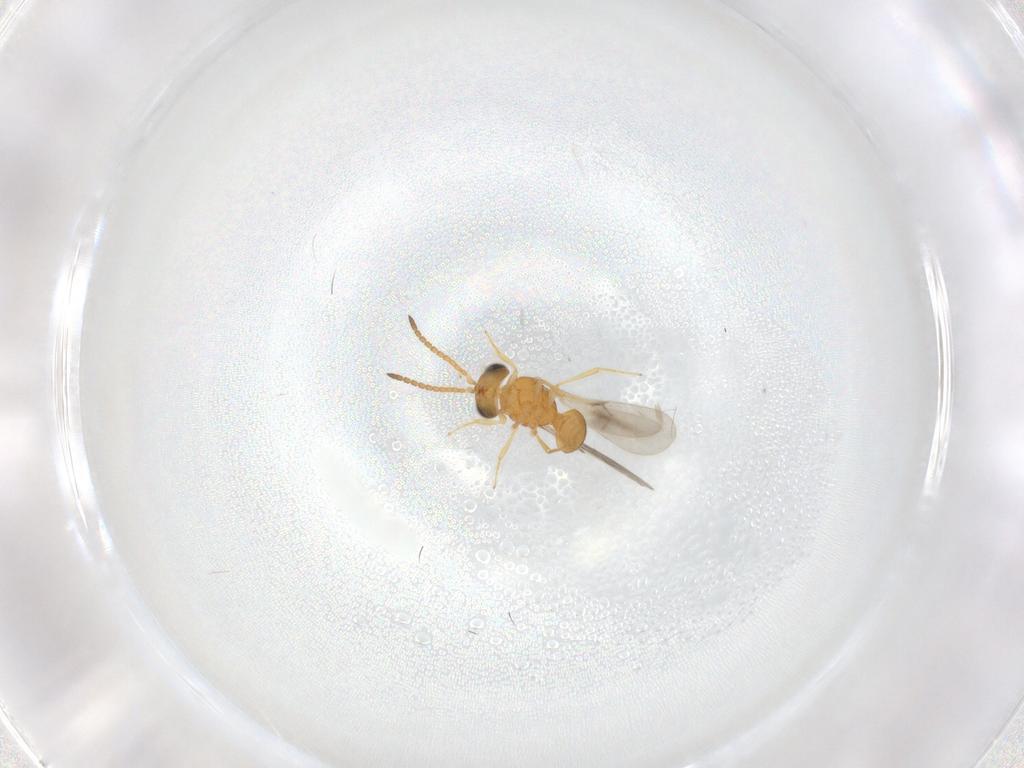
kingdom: Animalia
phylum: Arthropoda
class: Insecta
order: Hymenoptera
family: Scelionidae
